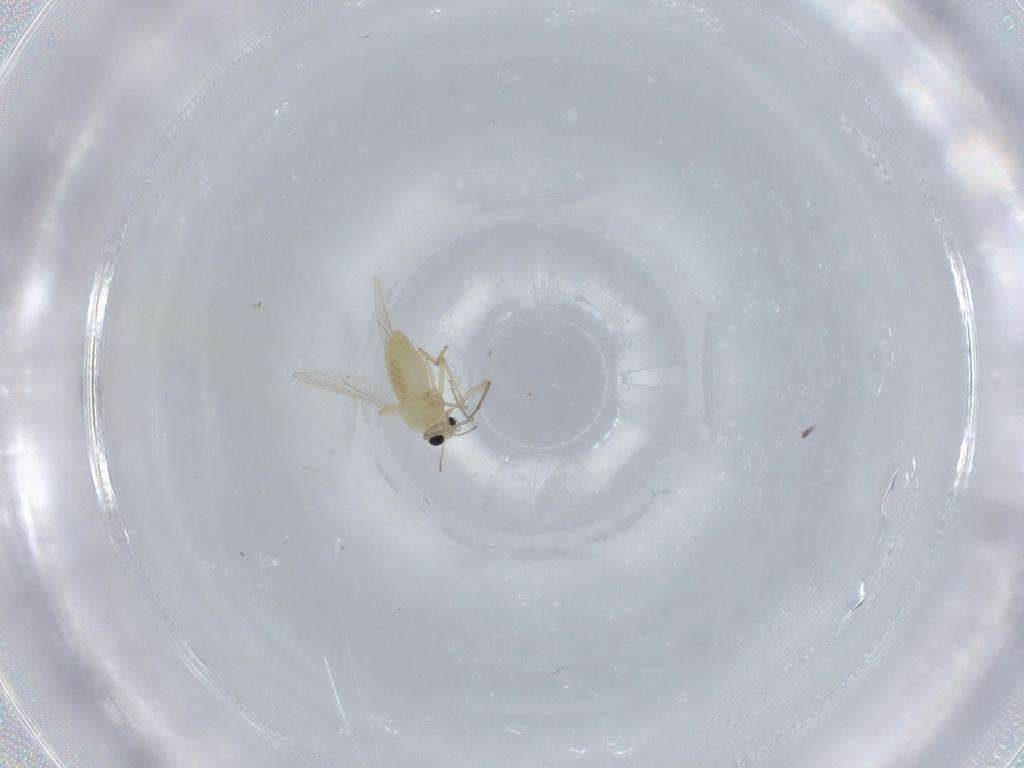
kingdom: Animalia
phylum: Arthropoda
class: Insecta
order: Diptera
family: Chironomidae
